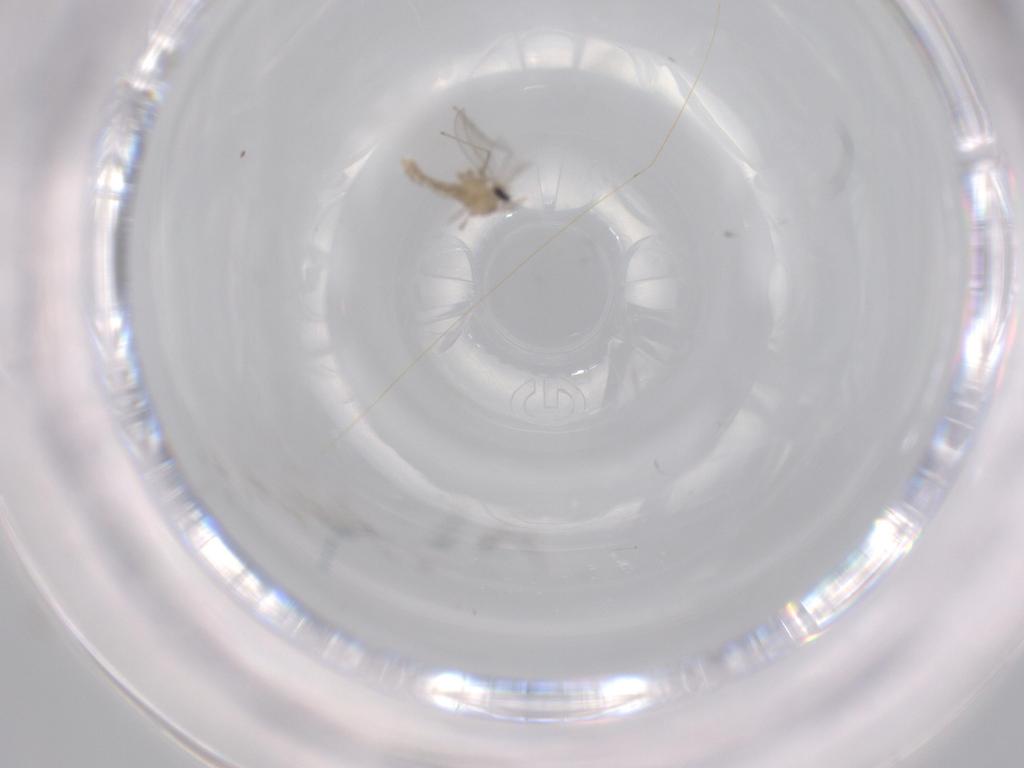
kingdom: Animalia
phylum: Arthropoda
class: Insecta
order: Diptera
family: Cecidomyiidae
